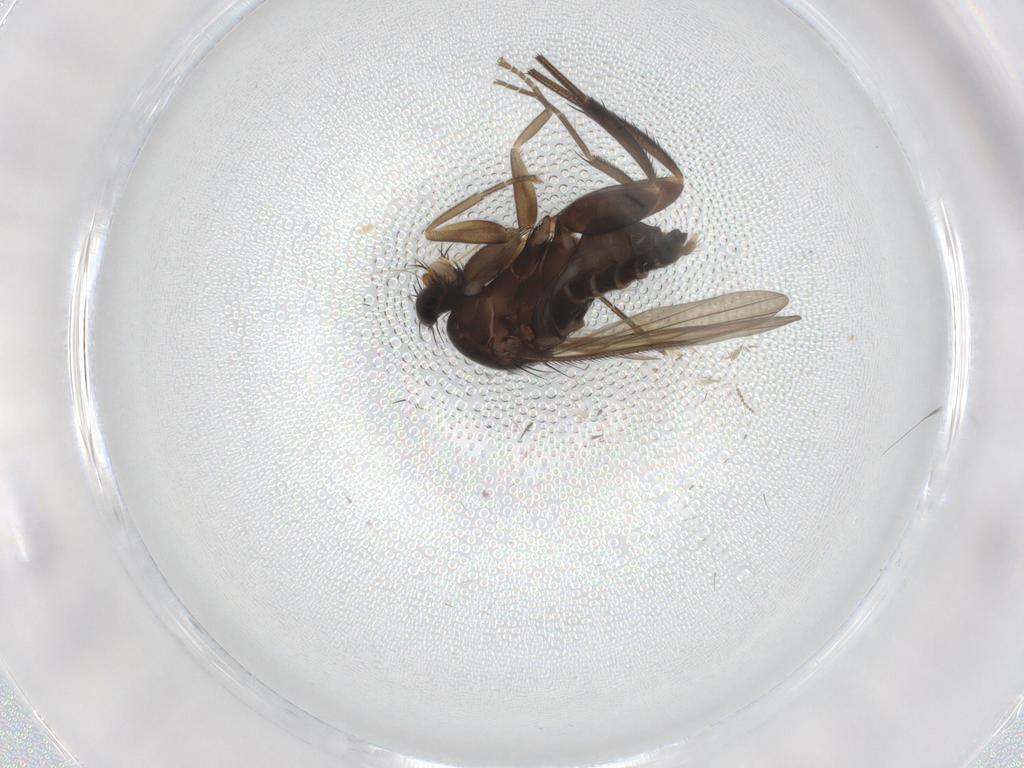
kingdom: Animalia
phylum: Arthropoda
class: Insecta
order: Diptera
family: Phoridae
